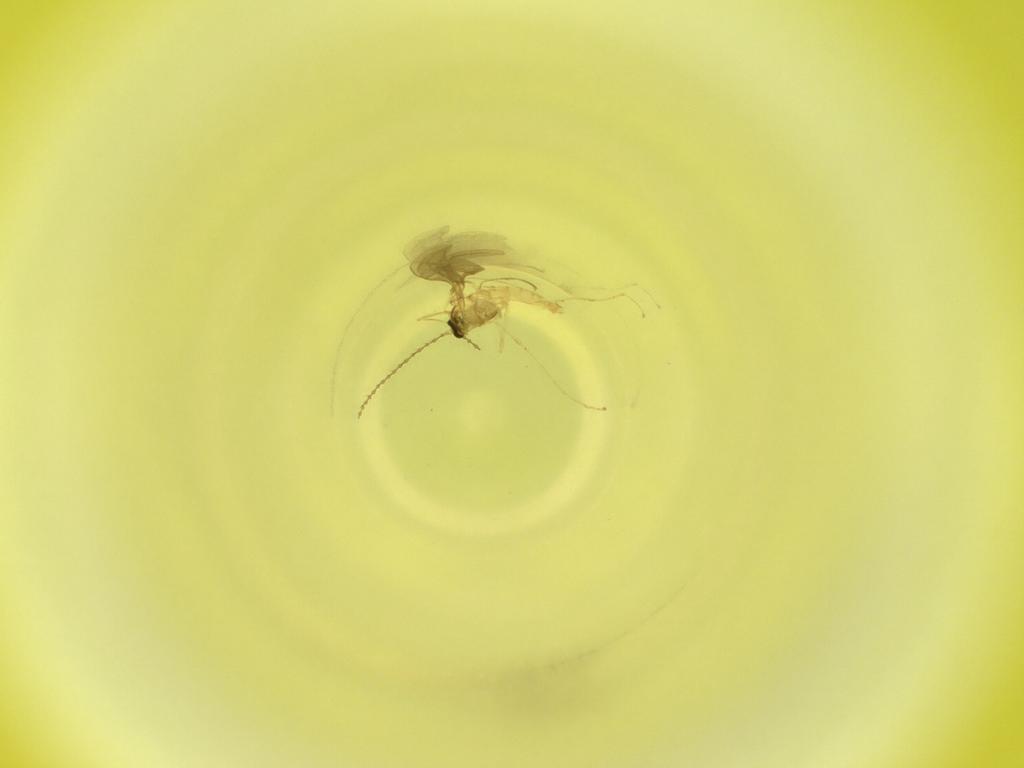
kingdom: Animalia
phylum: Arthropoda
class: Insecta
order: Diptera
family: Cecidomyiidae
